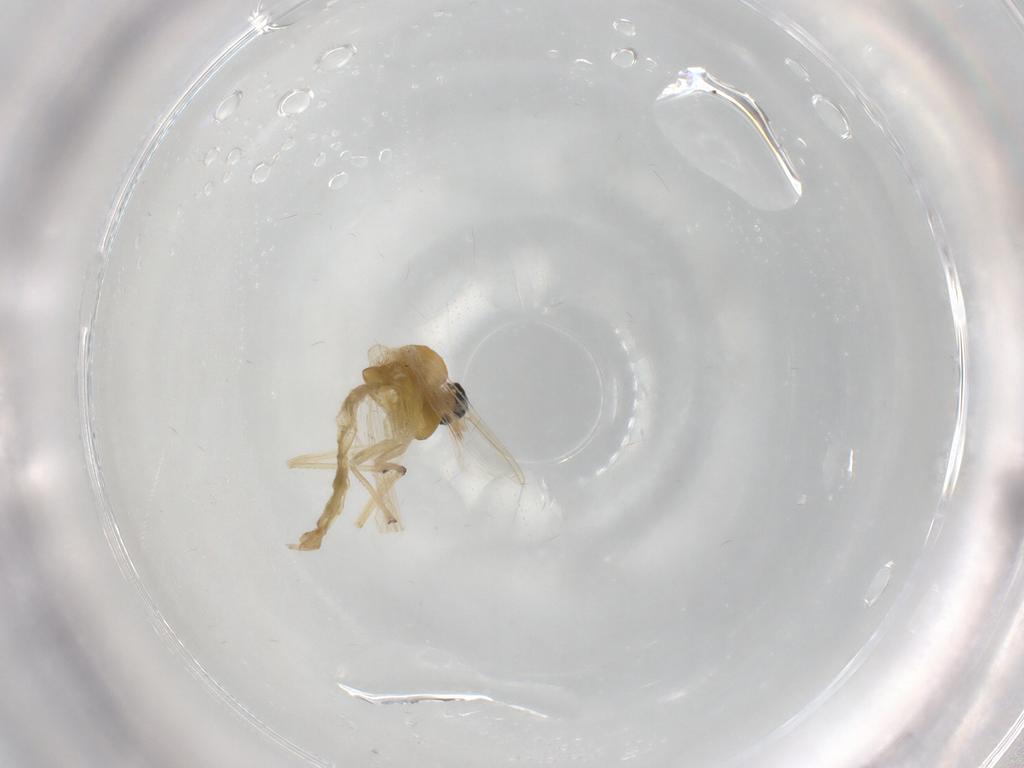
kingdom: Animalia
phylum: Arthropoda
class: Insecta
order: Diptera
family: Chironomidae
